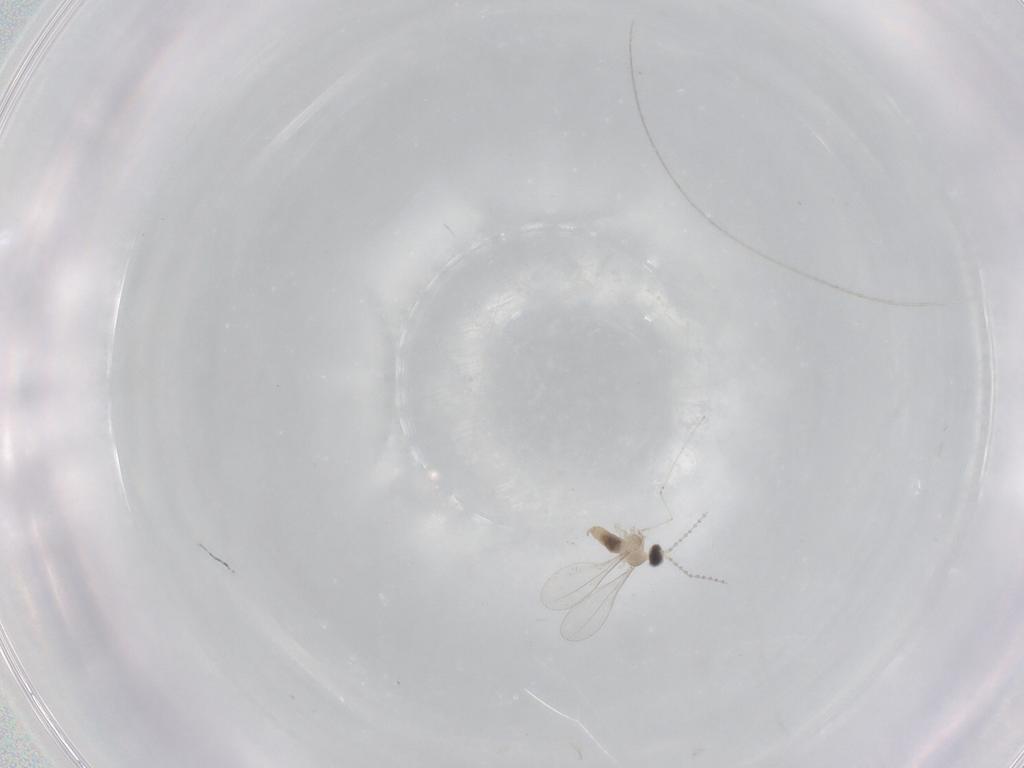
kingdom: Animalia
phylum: Arthropoda
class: Insecta
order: Diptera
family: Cecidomyiidae
